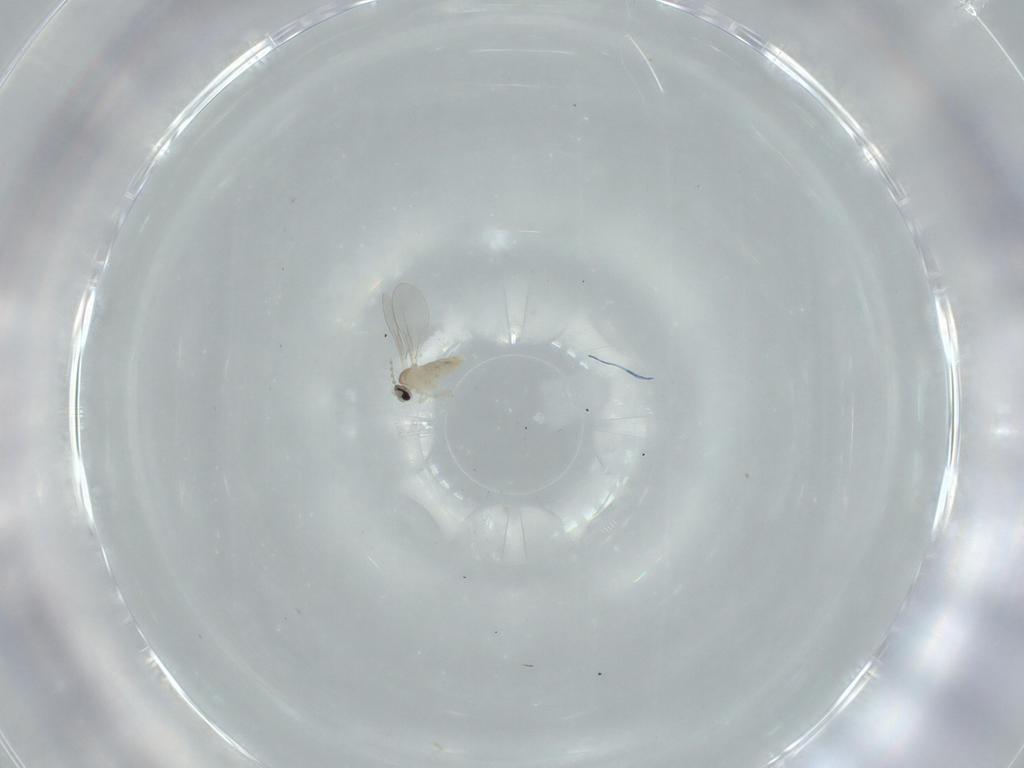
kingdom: Animalia
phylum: Arthropoda
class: Insecta
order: Diptera
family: Cecidomyiidae
